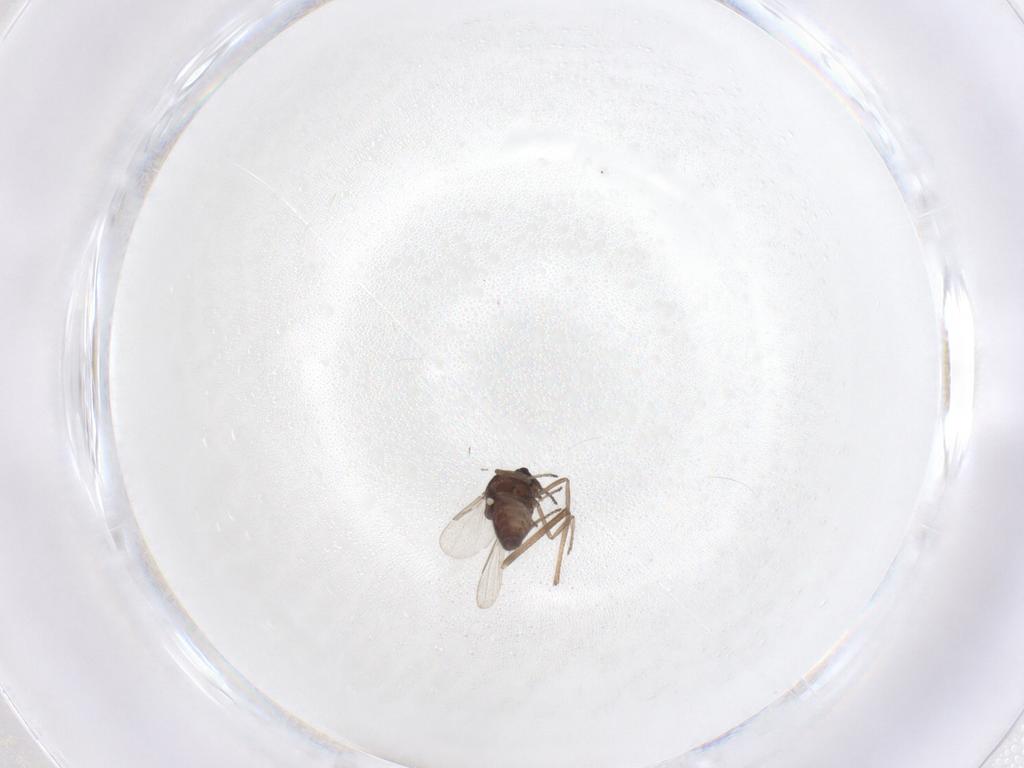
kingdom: Animalia
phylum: Arthropoda
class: Insecta
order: Diptera
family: Ceratopogonidae
